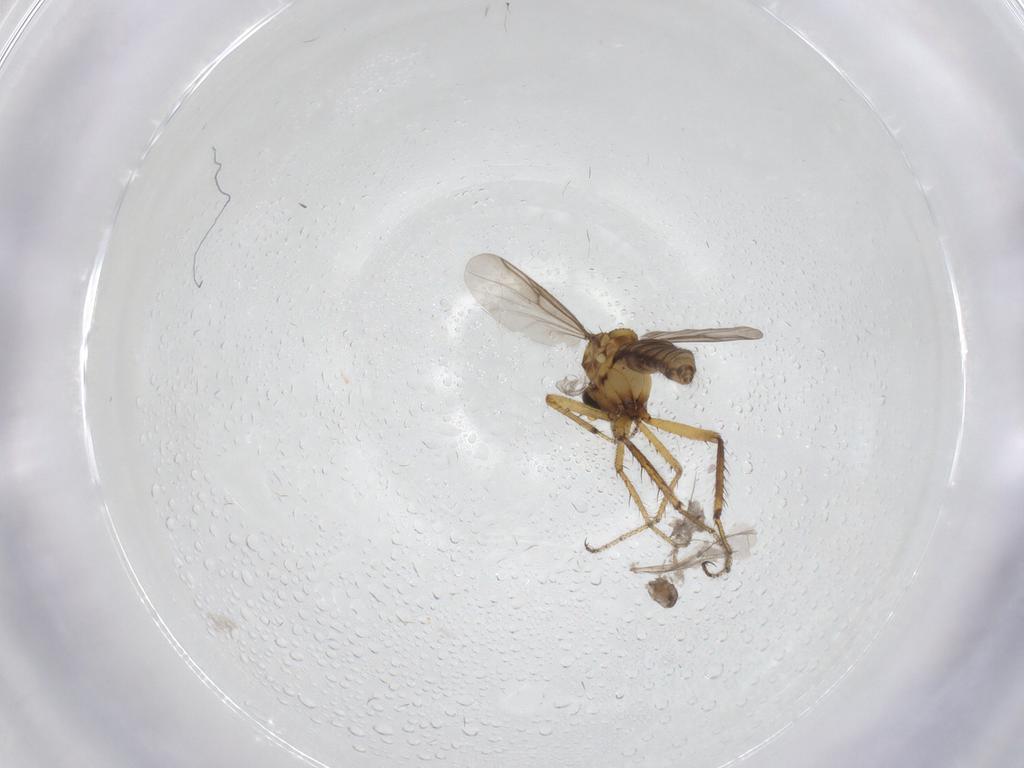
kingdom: Animalia
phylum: Arthropoda
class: Insecta
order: Diptera
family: Ceratopogonidae
